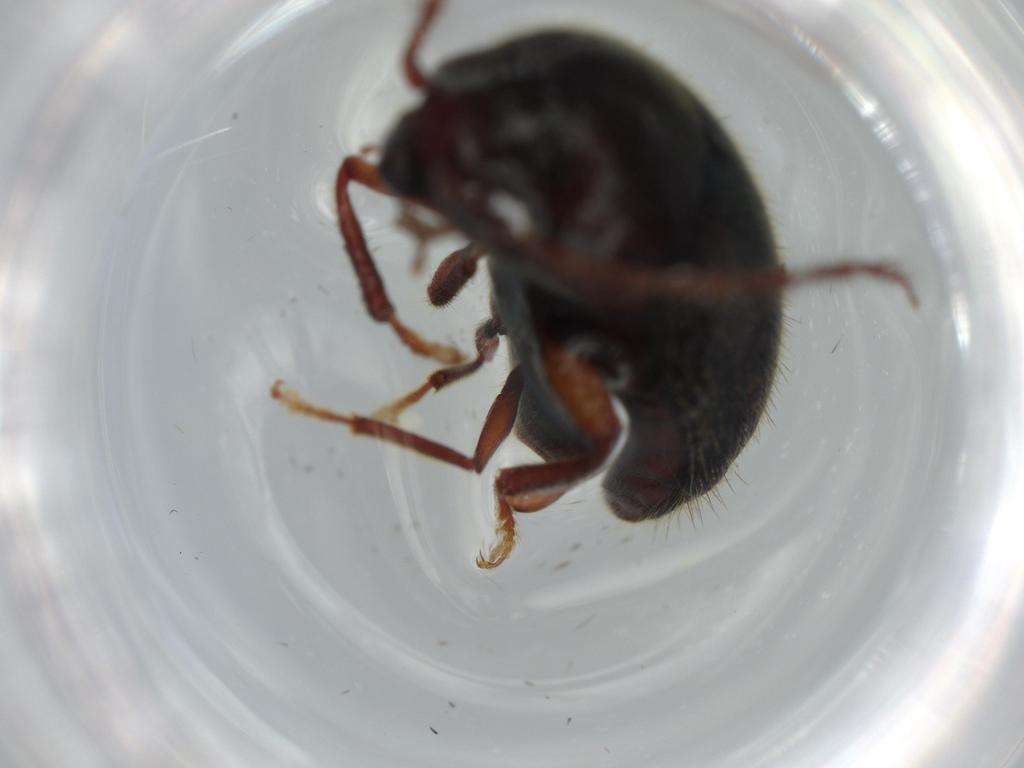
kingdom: Animalia
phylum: Arthropoda
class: Insecta
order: Coleoptera
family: Artematopodidae
